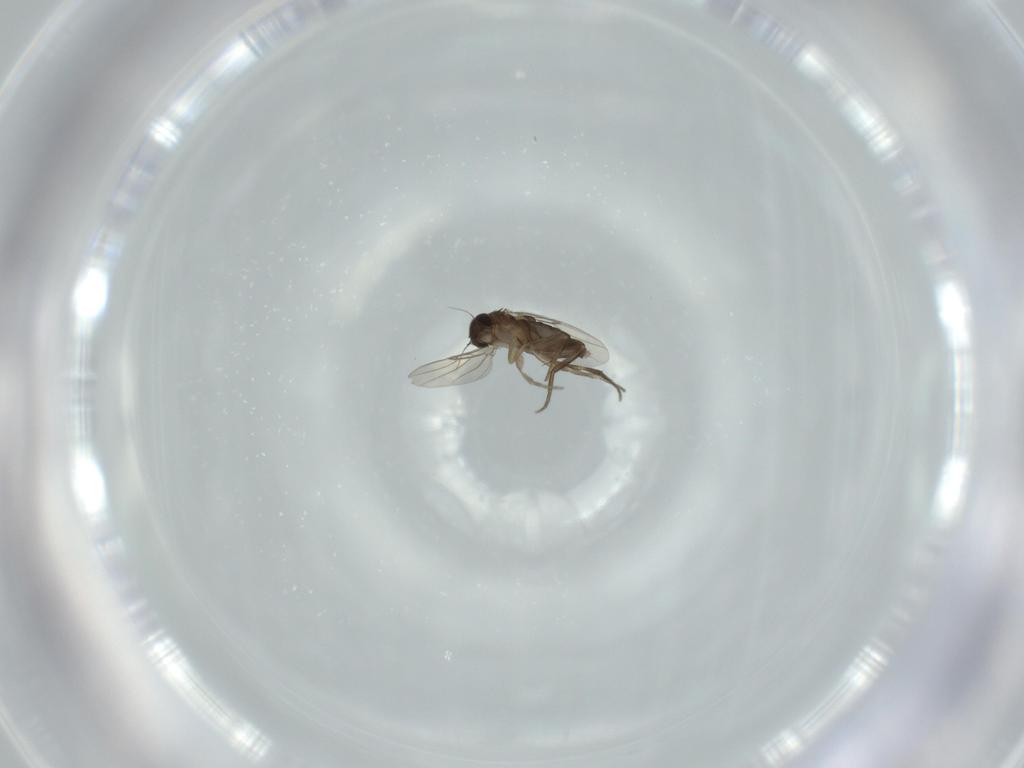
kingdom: Animalia
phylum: Arthropoda
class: Insecta
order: Diptera
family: Phoridae
